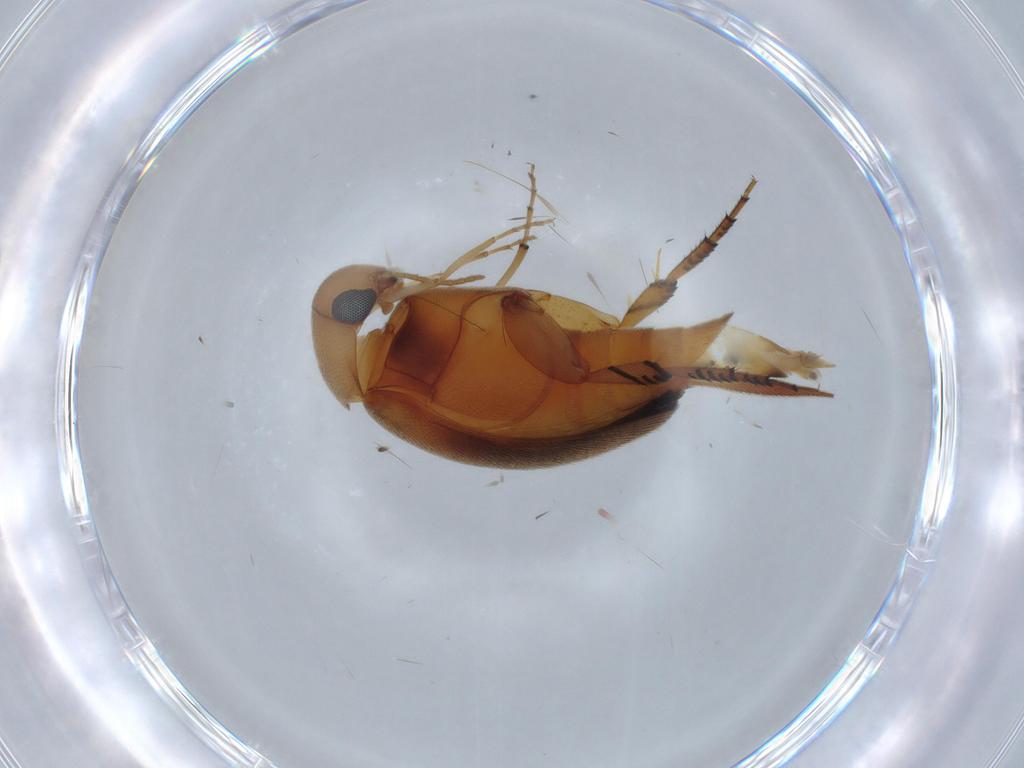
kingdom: Animalia
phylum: Arthropoda
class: Insecta
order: Coleoptera
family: Mordellidae
